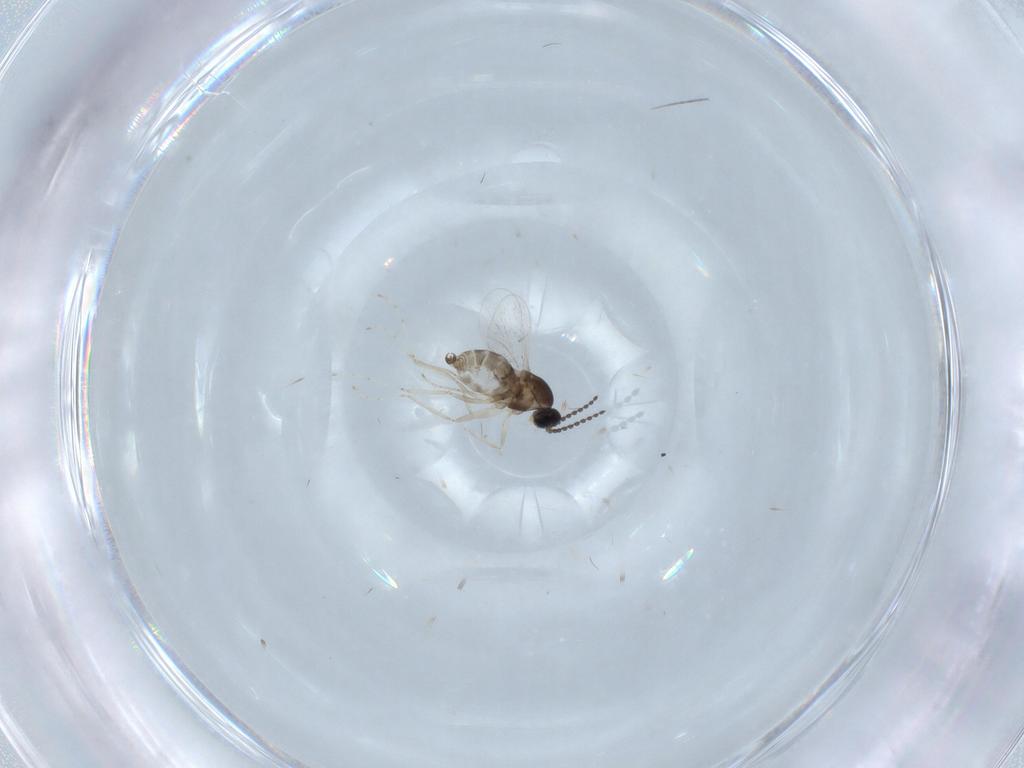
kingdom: Animalia
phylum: Arthropoda
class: Insecta
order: Diptera
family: Cecidomyiidae
